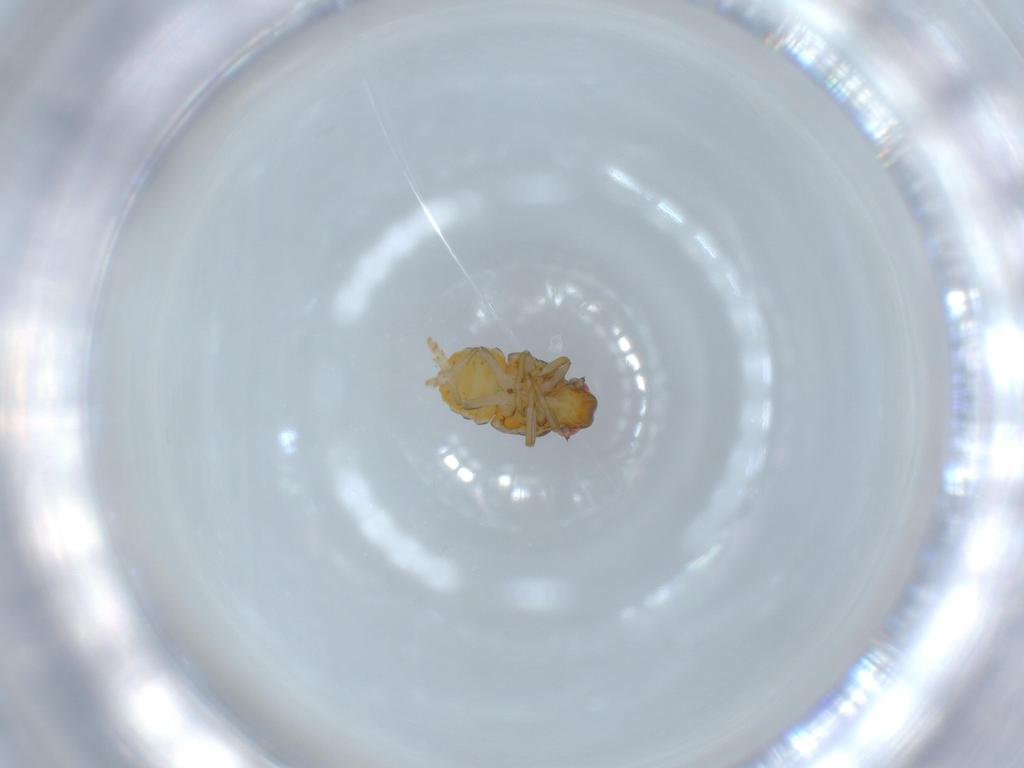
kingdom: Animalia
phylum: Arthropoda
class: Insecta
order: Hemiptera
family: Issidae
